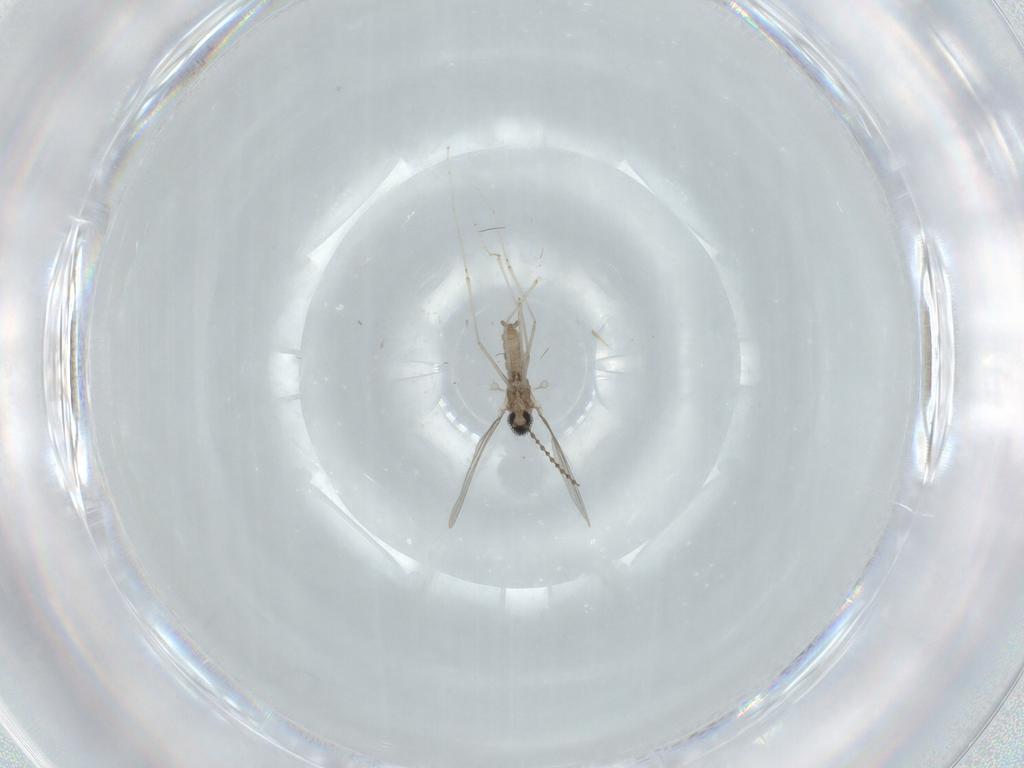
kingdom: Animalia
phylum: Arthropoda
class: Insecta
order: Diptera
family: Cecidomyiidae
